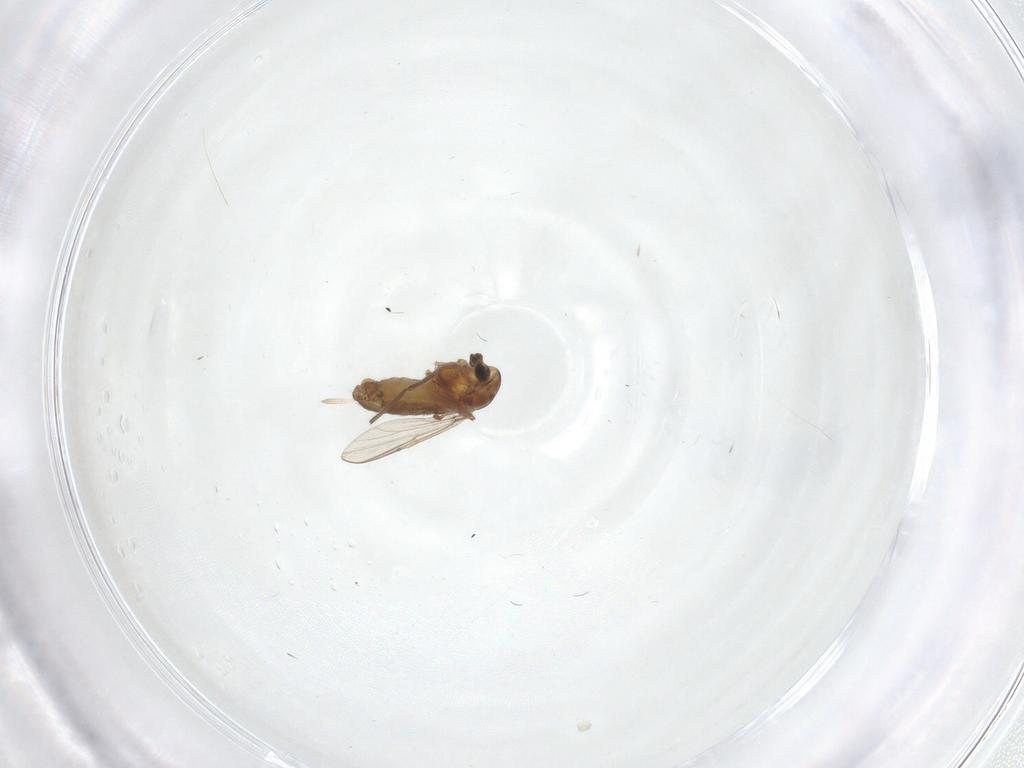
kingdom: Animalia
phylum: Arthropoda
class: Insecta
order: Diptera
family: Chironomidae
